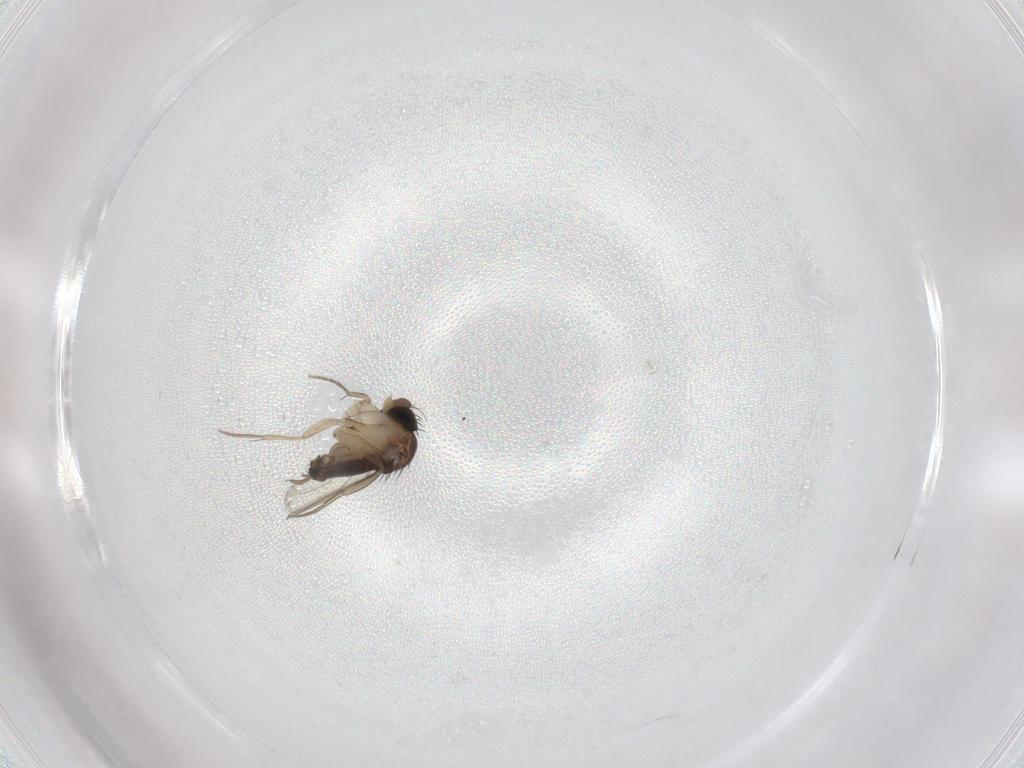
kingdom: Animalia
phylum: Arthropoda
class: Insecta
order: Diptera
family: Sciaridae
